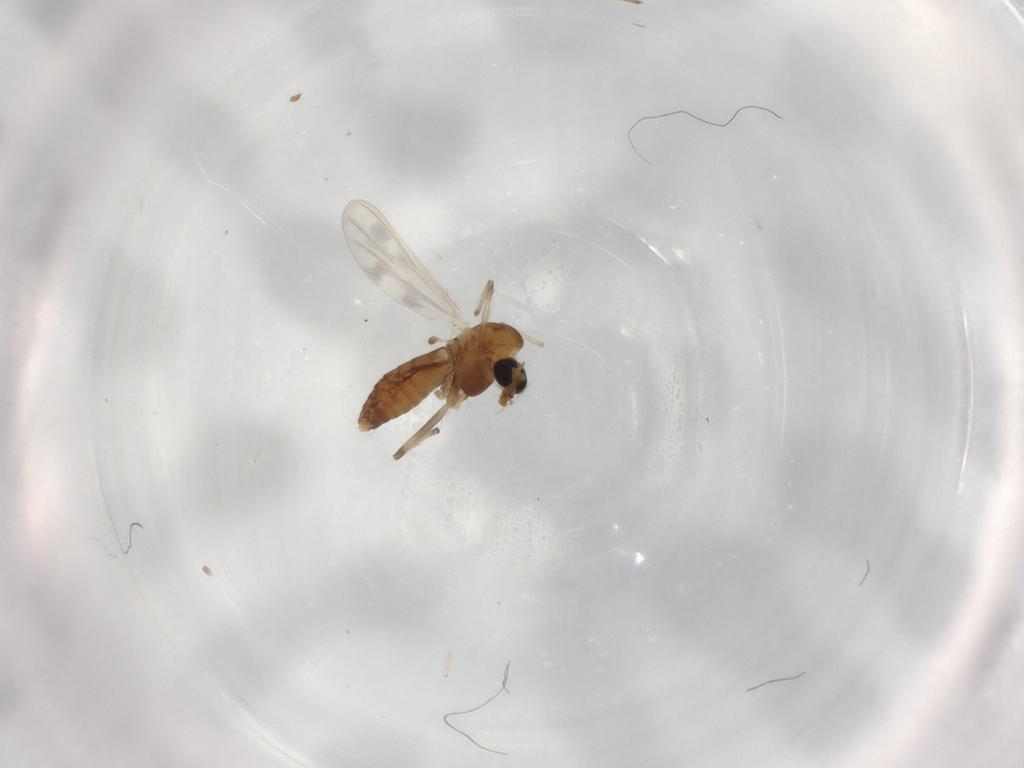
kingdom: Animalia
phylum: Arthropoda
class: Insecta
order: Diptera
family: Chironomidae
